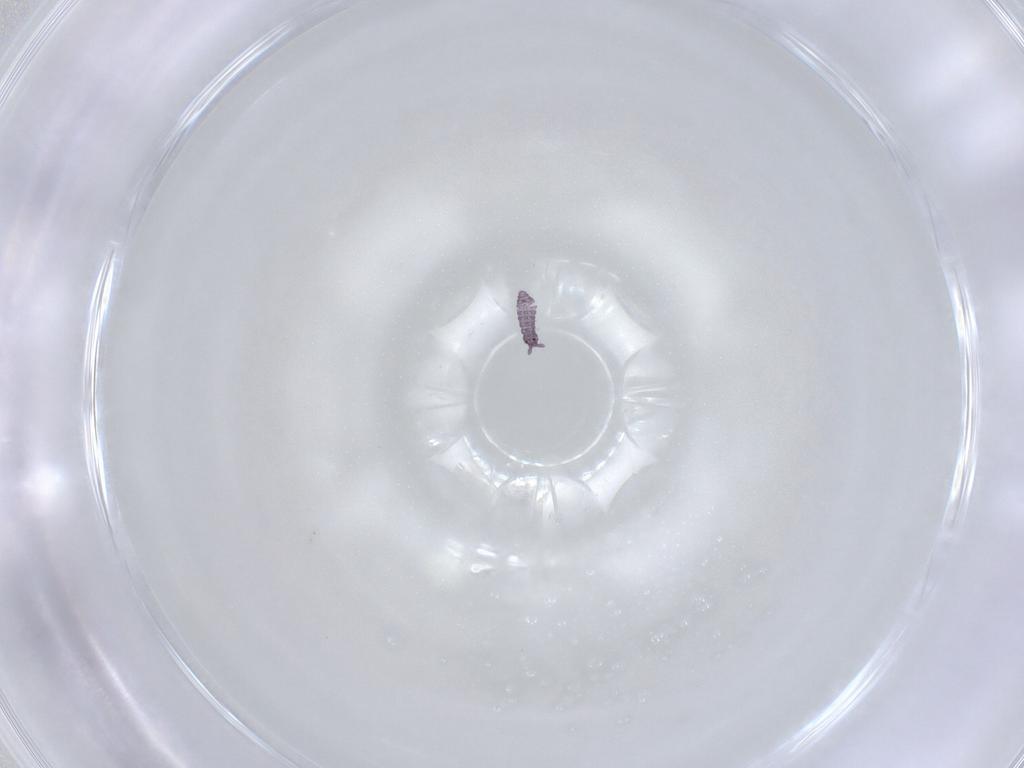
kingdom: Animalia
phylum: Arthropoda
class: Collembola
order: Poduromorpha
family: Hypogastruridae
